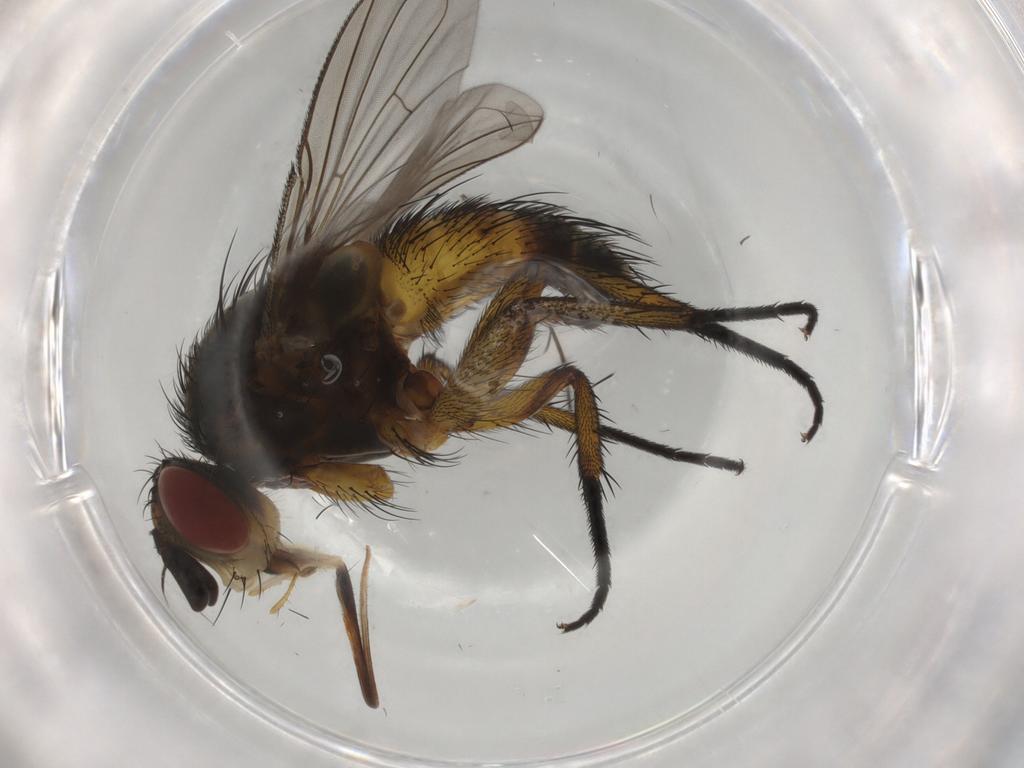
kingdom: Animalia
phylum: Arthropoda
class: Insecta
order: Diptera
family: Tachinidae
